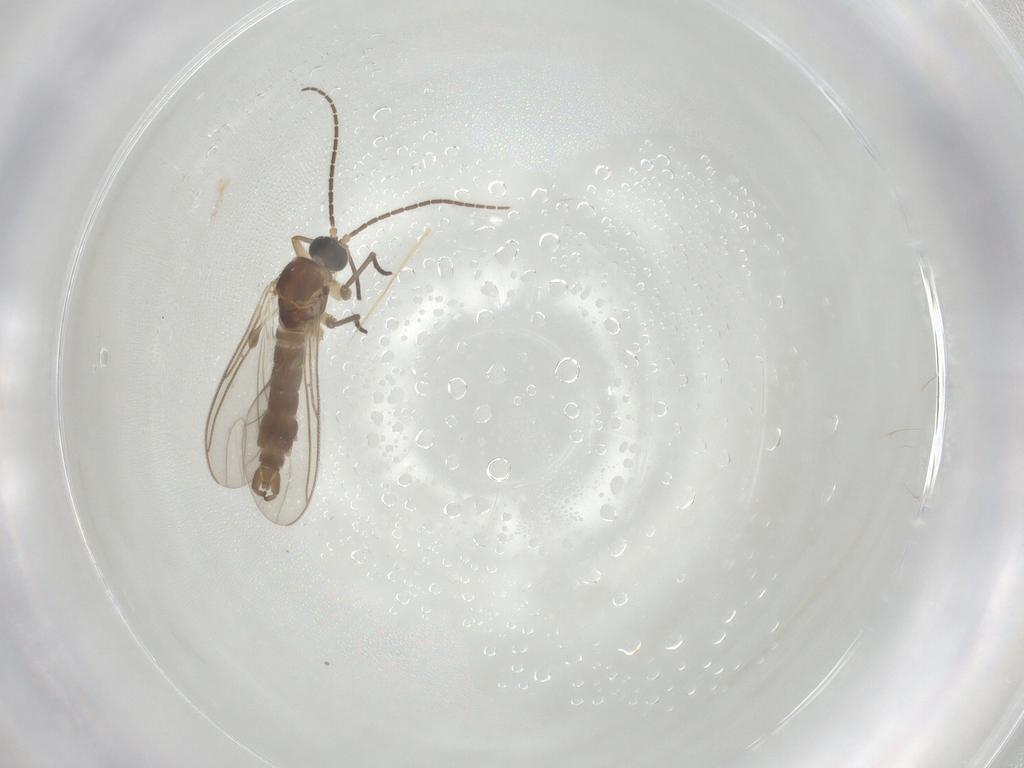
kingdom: Animalia
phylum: Arthropoda
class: Insecta
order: Diptera
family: Sciaridae
